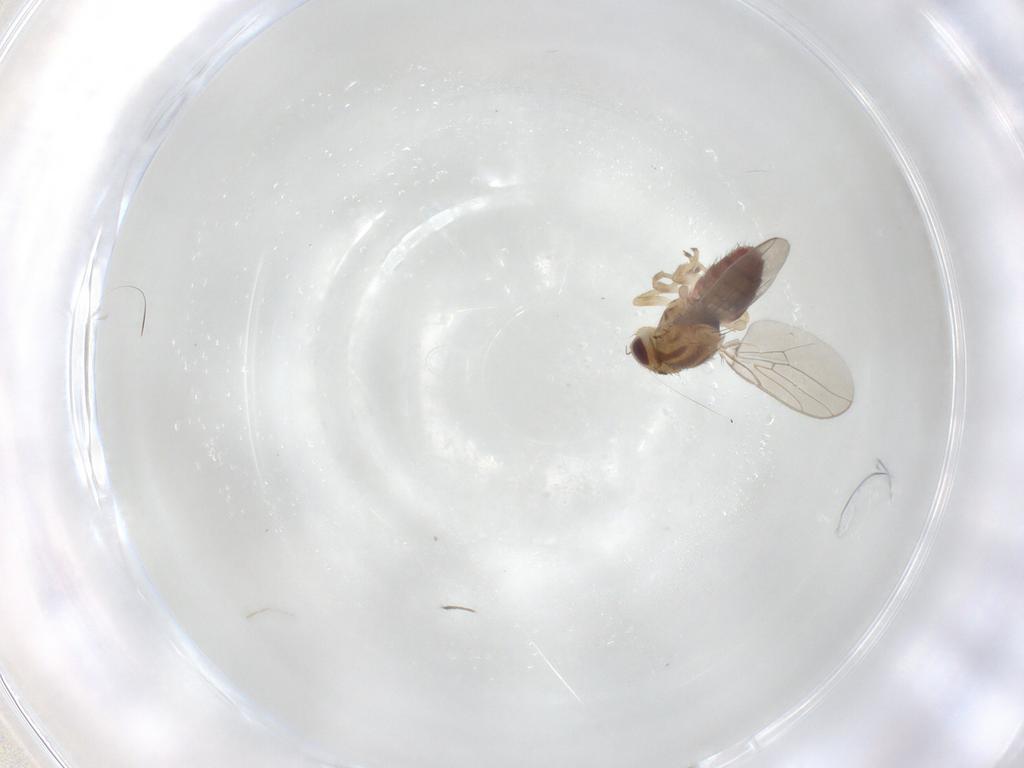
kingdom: Animalia
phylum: Arthropoda
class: Insecta
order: Diptera
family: Chloropidae
